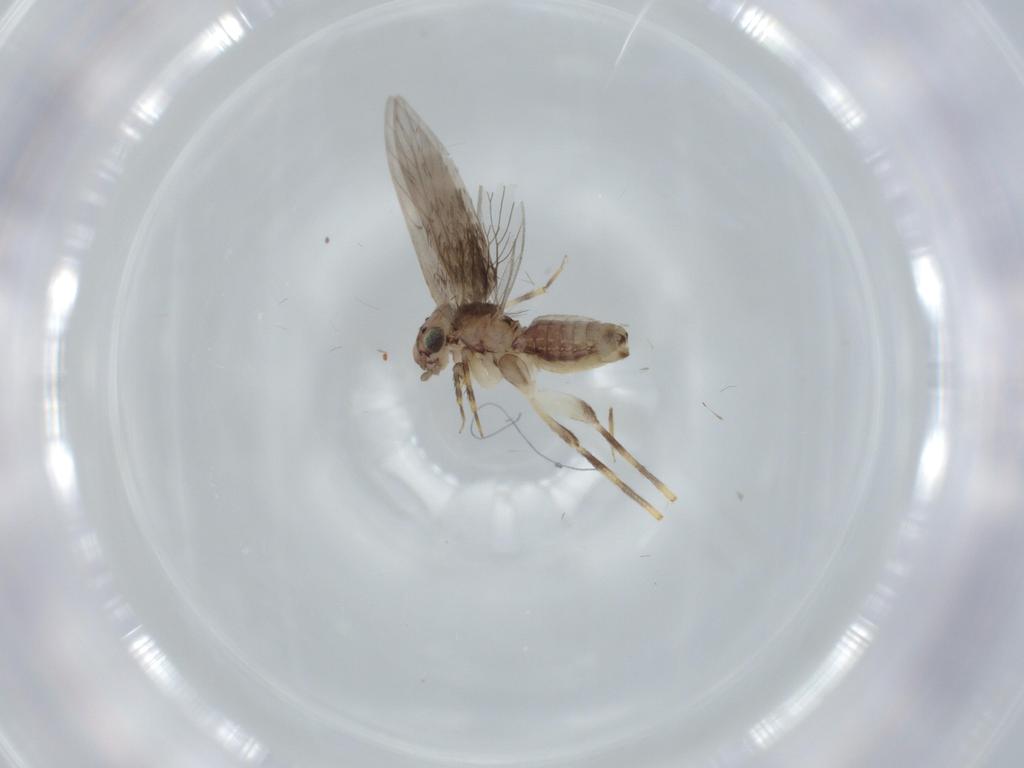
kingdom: Animalia
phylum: Arthropoda
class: Insecta
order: Psocodea
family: Lepidopsocidae
